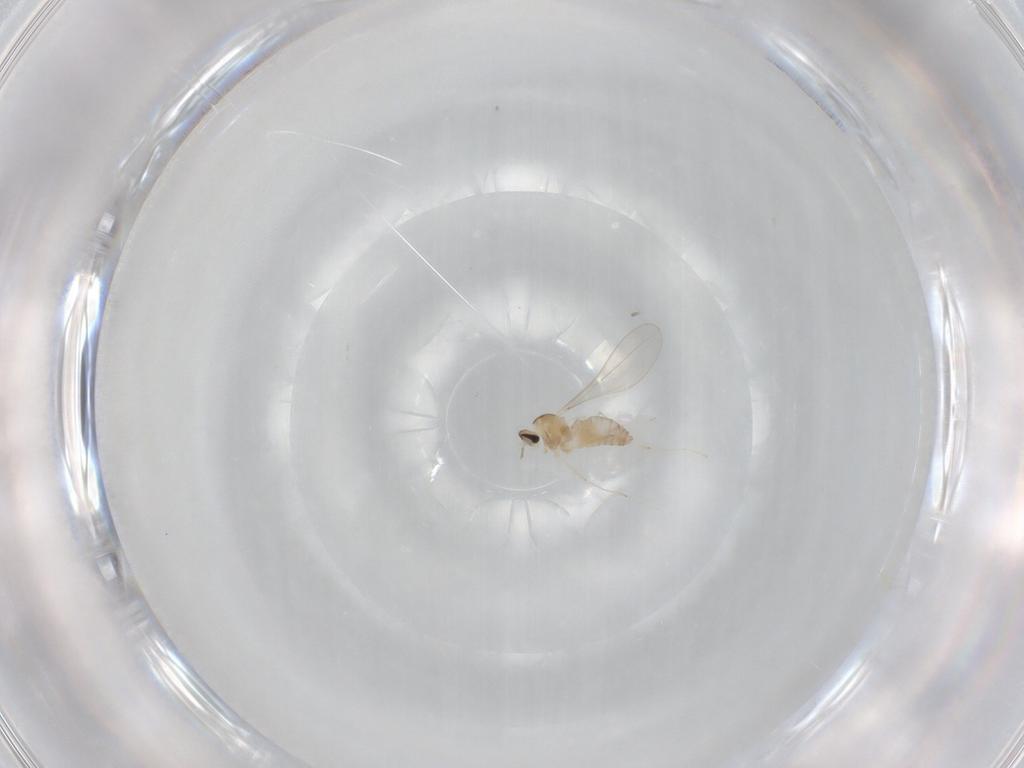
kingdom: Animalia
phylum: Arthropoda
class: Insecta
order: Diptera
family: Cecidomyiidae
